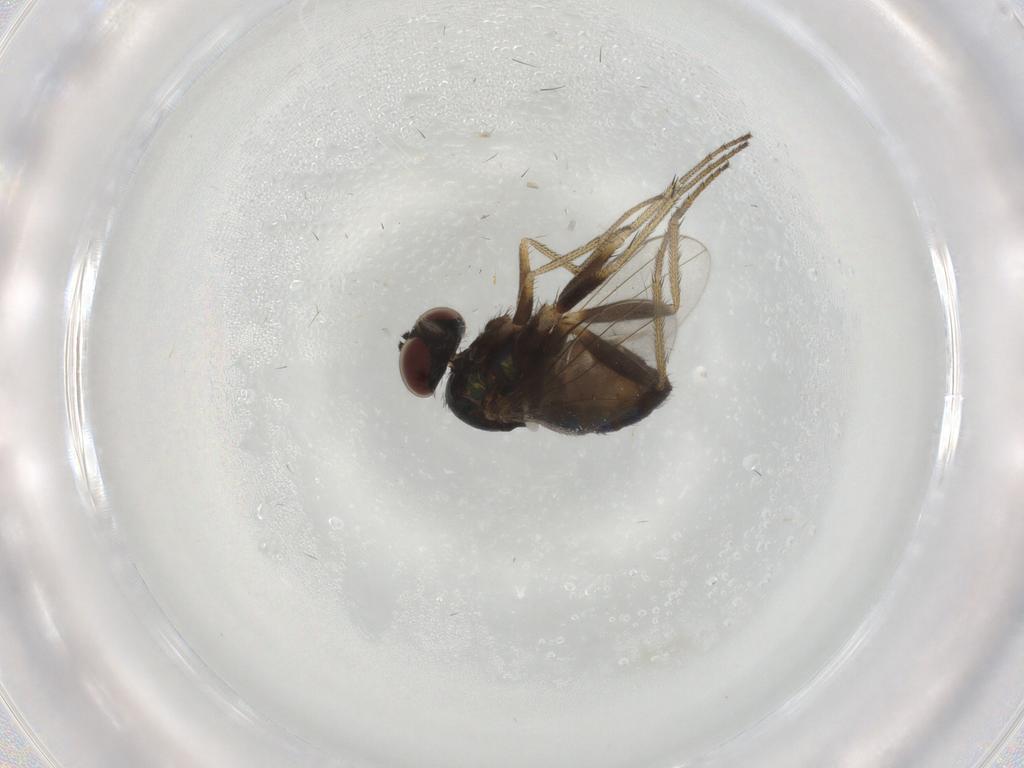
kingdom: Animalia
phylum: Arthropoda
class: Insecta
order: Diptera
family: Dolichopodidae
